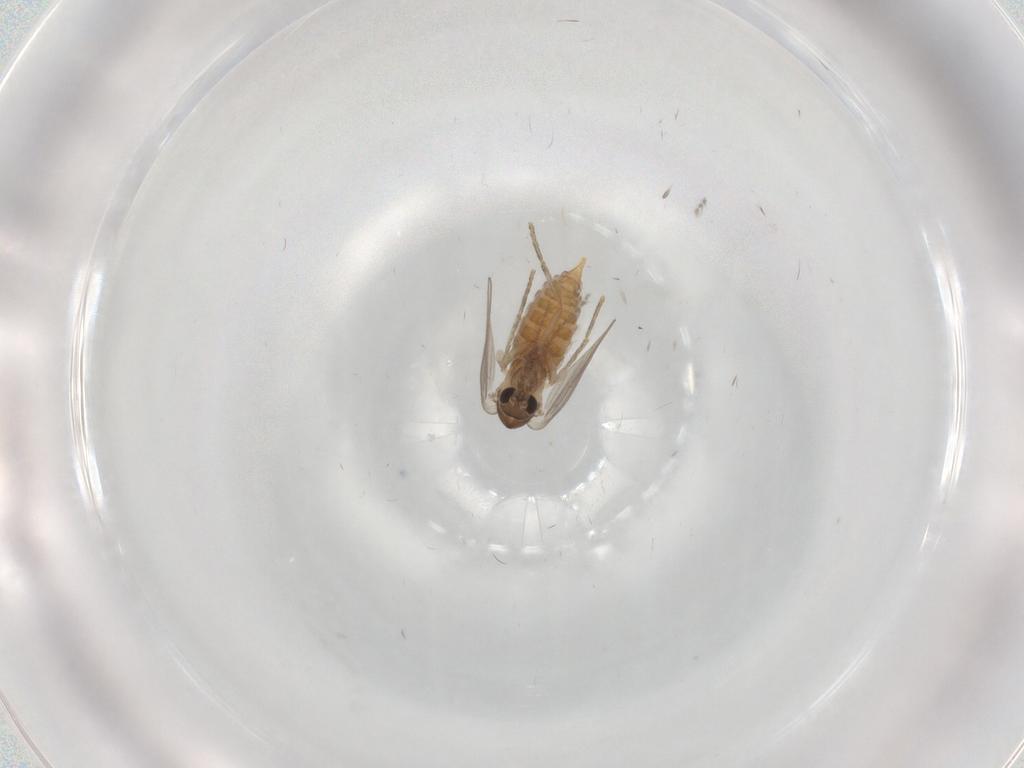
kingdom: Animalia
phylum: Arthropoda
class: Insecta
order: Diptera
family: Psychodidae
